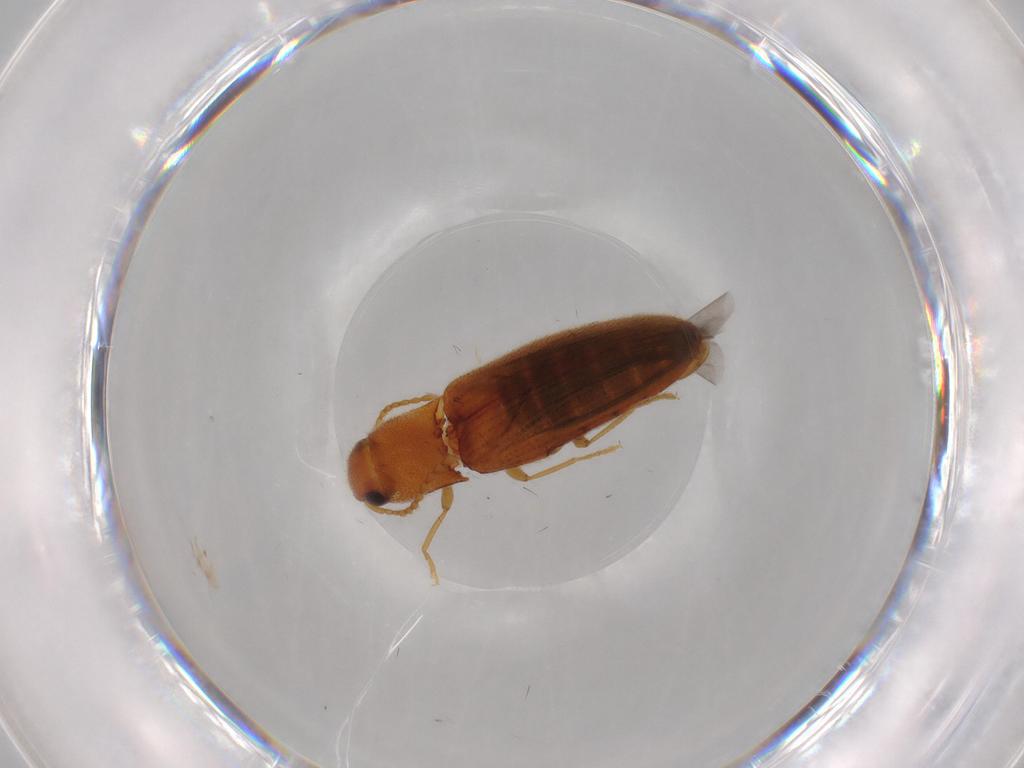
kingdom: Animalia
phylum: Arthropoda
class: Insecta
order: Coleoptera
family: Elateridae
